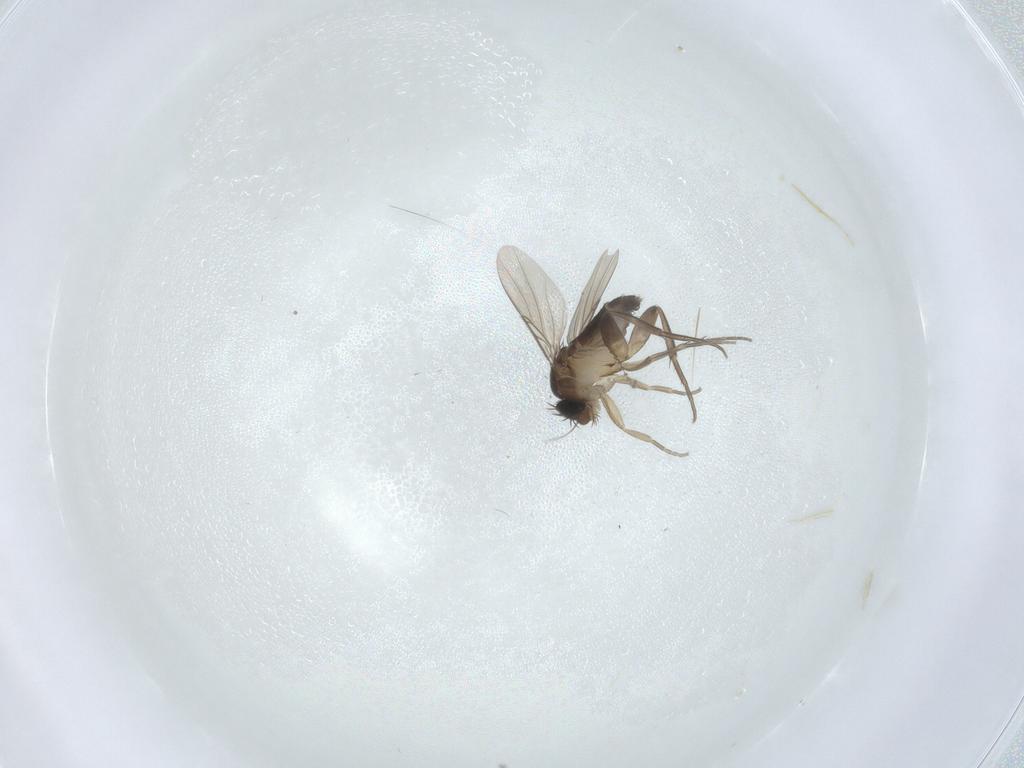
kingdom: Animalia
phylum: Arthropoda
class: Insecta
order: Diptera
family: Phoridae
